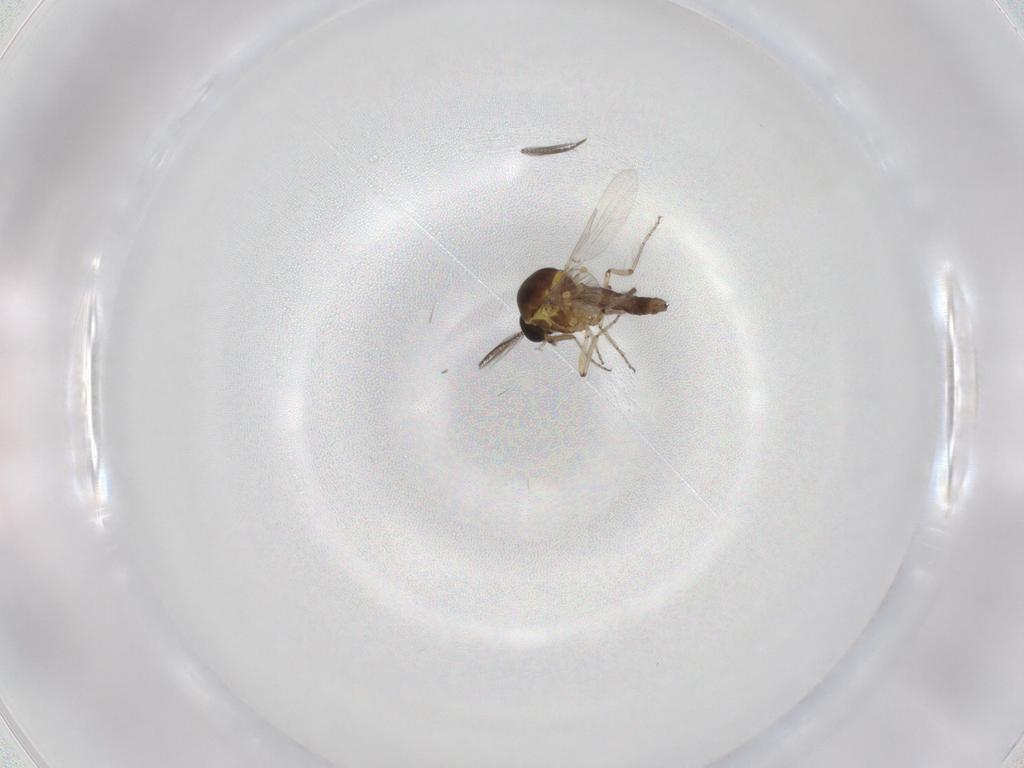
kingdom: Animalia
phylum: Arthropoda
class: Insecta
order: Diptera
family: Ceratopogonidae
